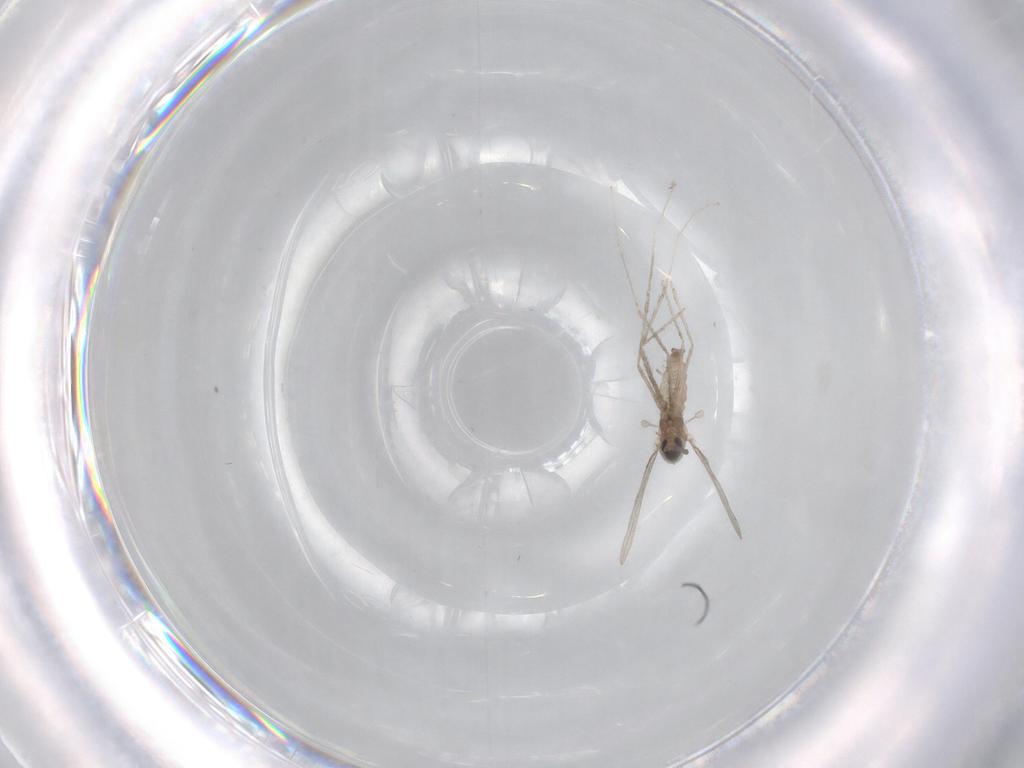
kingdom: Animalia
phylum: Arthropoda
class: Insecta
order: Diptera
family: Cecidomyiidae
